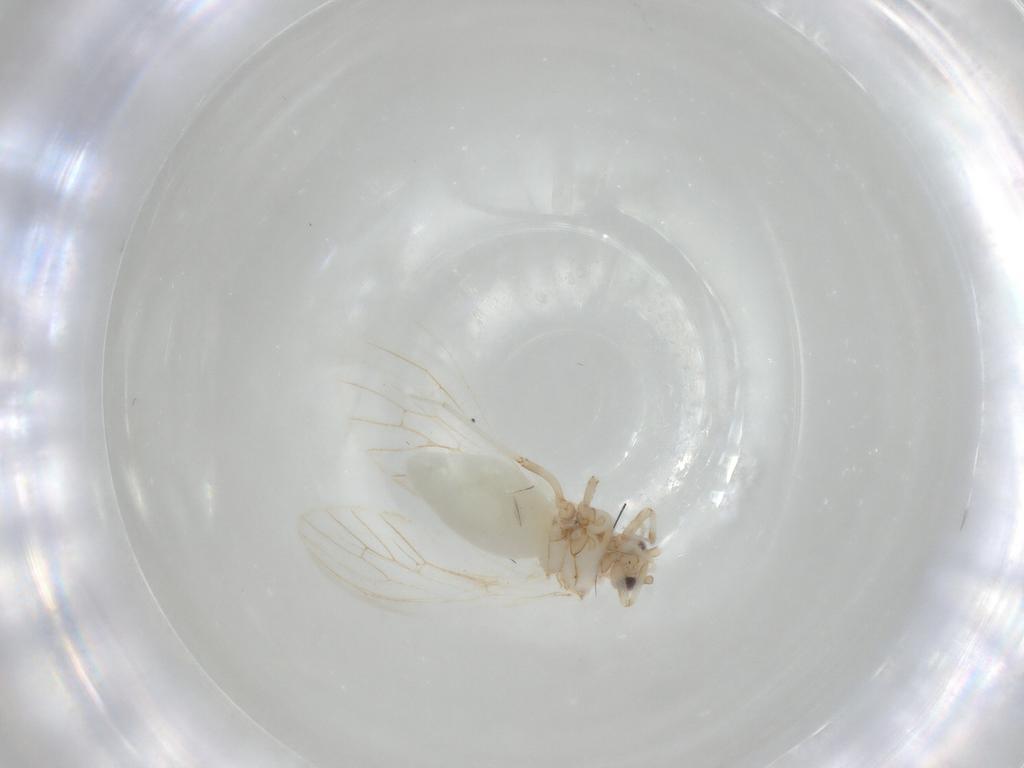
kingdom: Animalia
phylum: Arthropoda
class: Insecta
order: Neuroptera
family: Coniopterygidae
